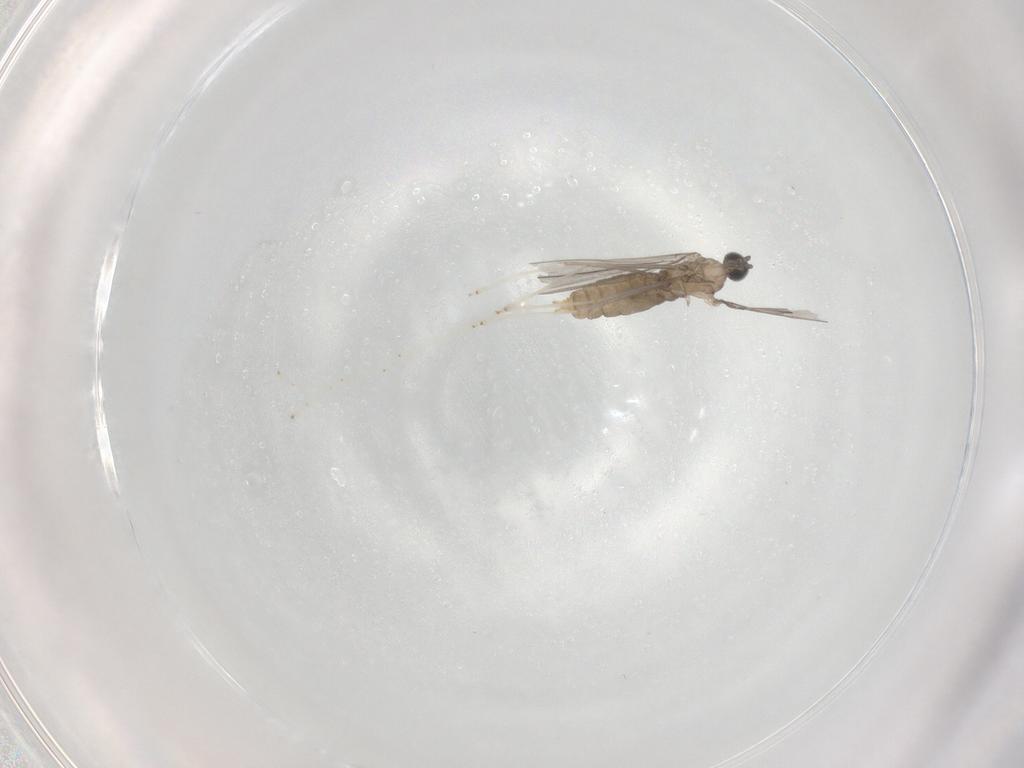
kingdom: Animalia
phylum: Arthropoda
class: Insecta
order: Diptera
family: Cecidomyiidae
